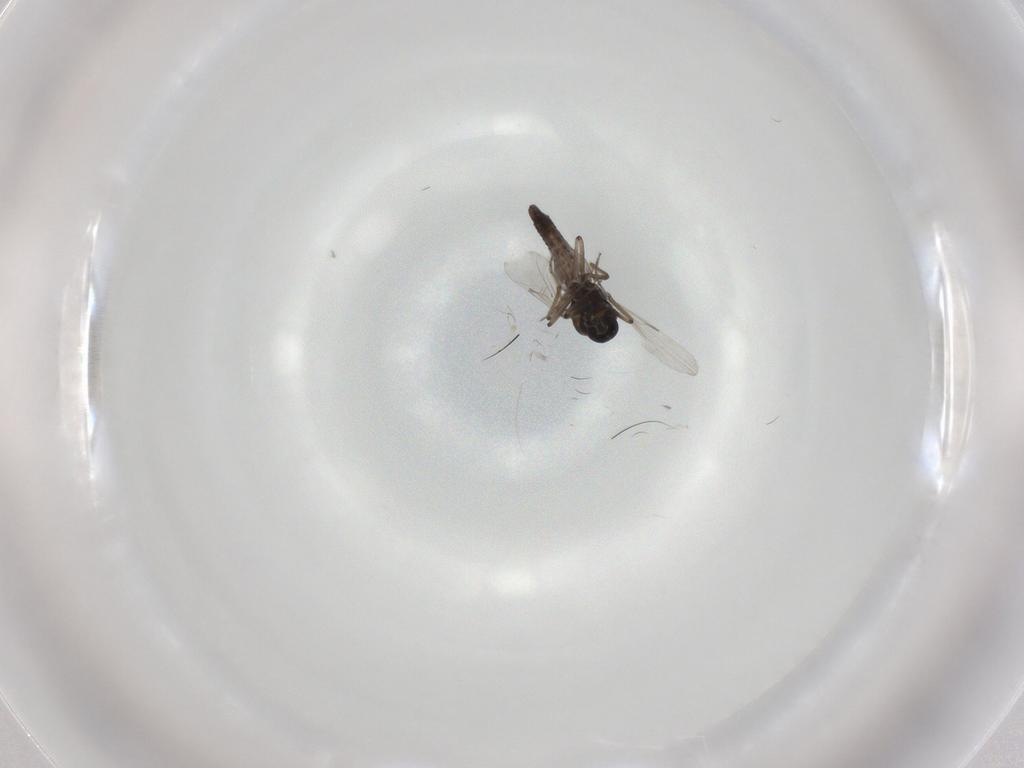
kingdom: Animalia
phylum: Arthropoda
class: Insecta
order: Diptera
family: Ceratopogonidae
